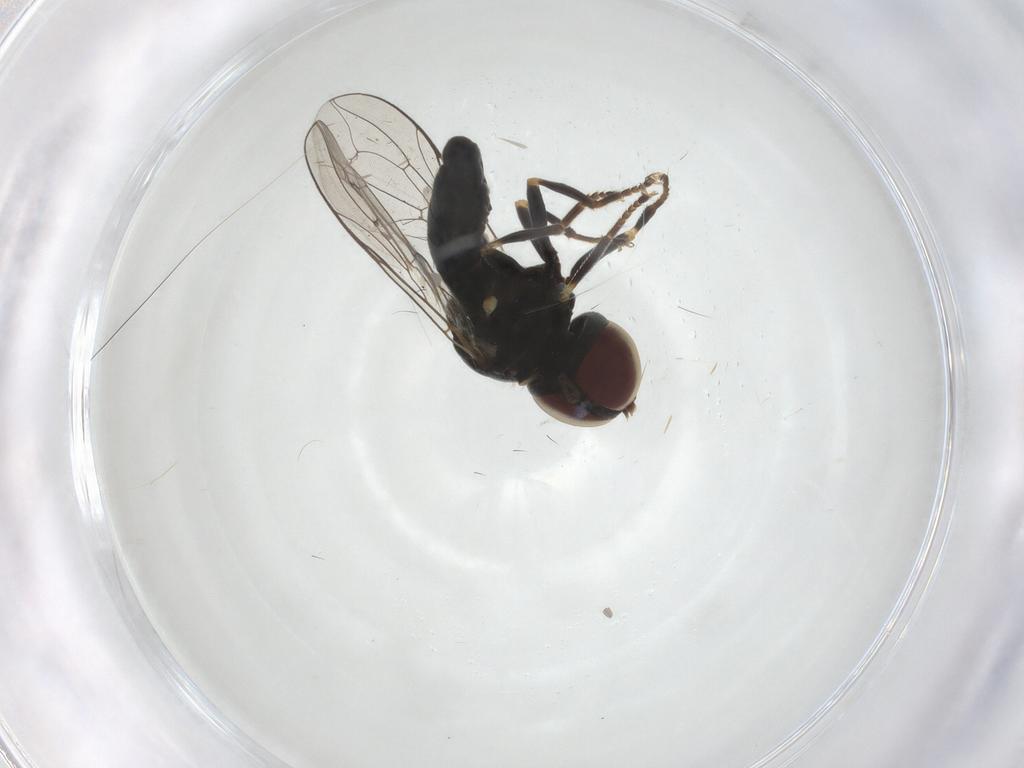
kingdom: Animalia
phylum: Arthropoda
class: Insecta
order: Diptera
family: Pipunculidae
